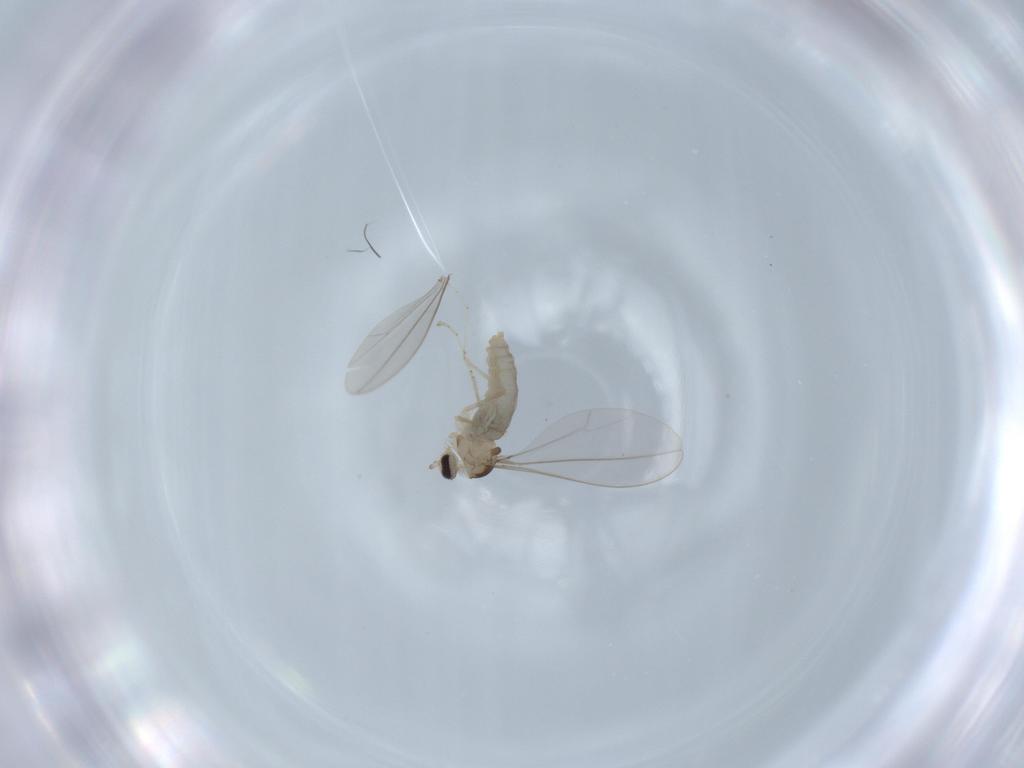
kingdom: Animalia
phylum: Arthropoda
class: Insecta
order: Diptera
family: Cecidomyiidae
